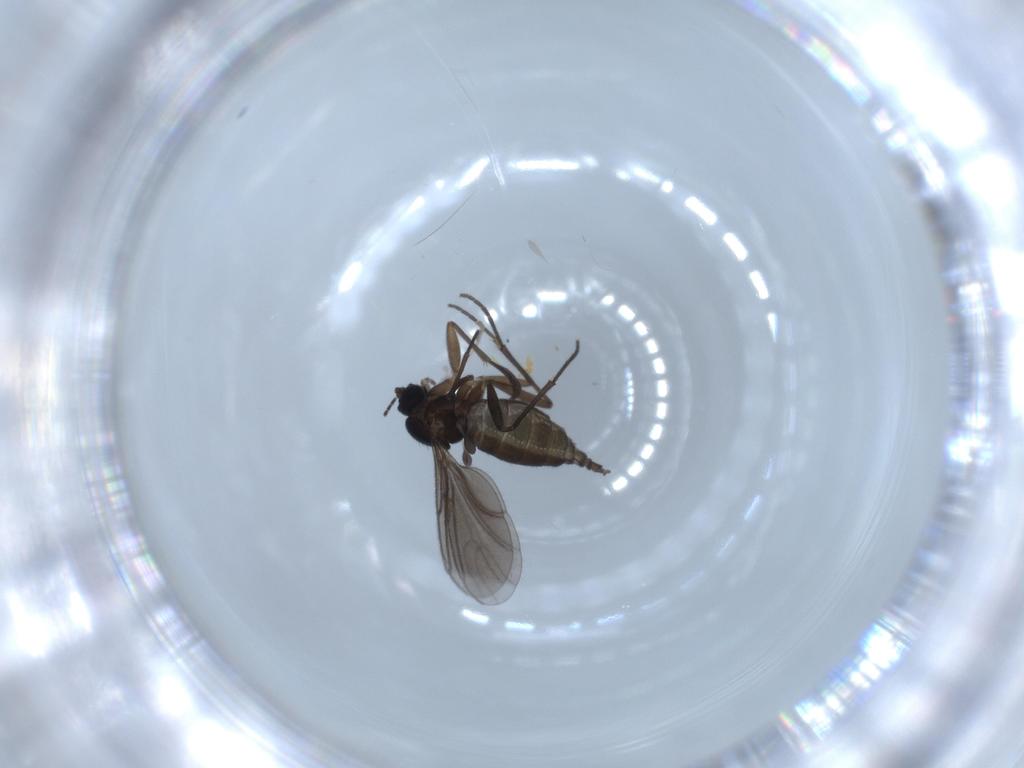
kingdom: Animalia
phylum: Arthropoda
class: Insecta
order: Diptera
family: Sciaridae
